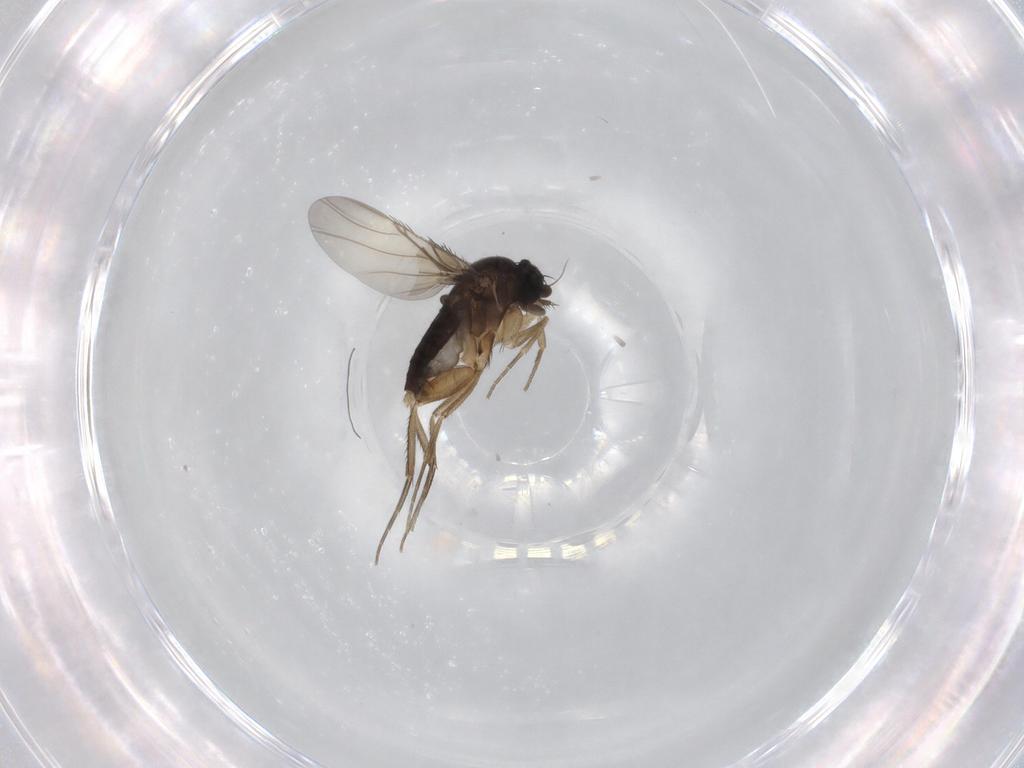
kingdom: Animalia
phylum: Arthropoda
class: Insecta
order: Diptera
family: Phoridae
